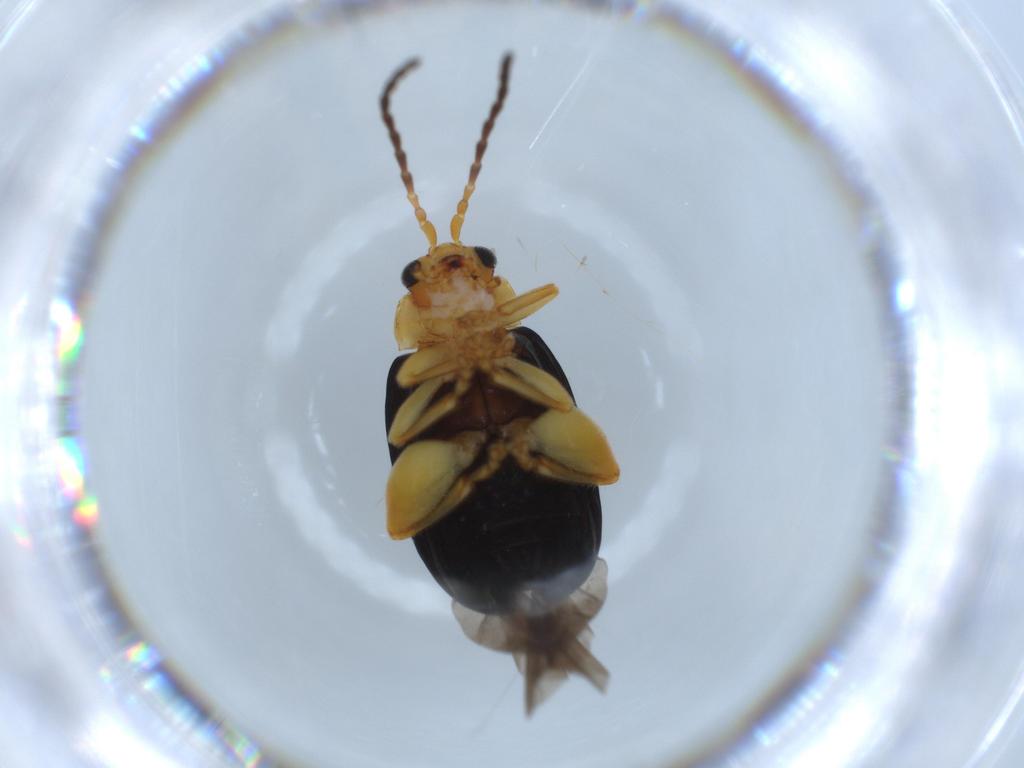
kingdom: Animalia
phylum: Arthropoda
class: Insecta
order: Coleoptera
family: Chrysomelidae
